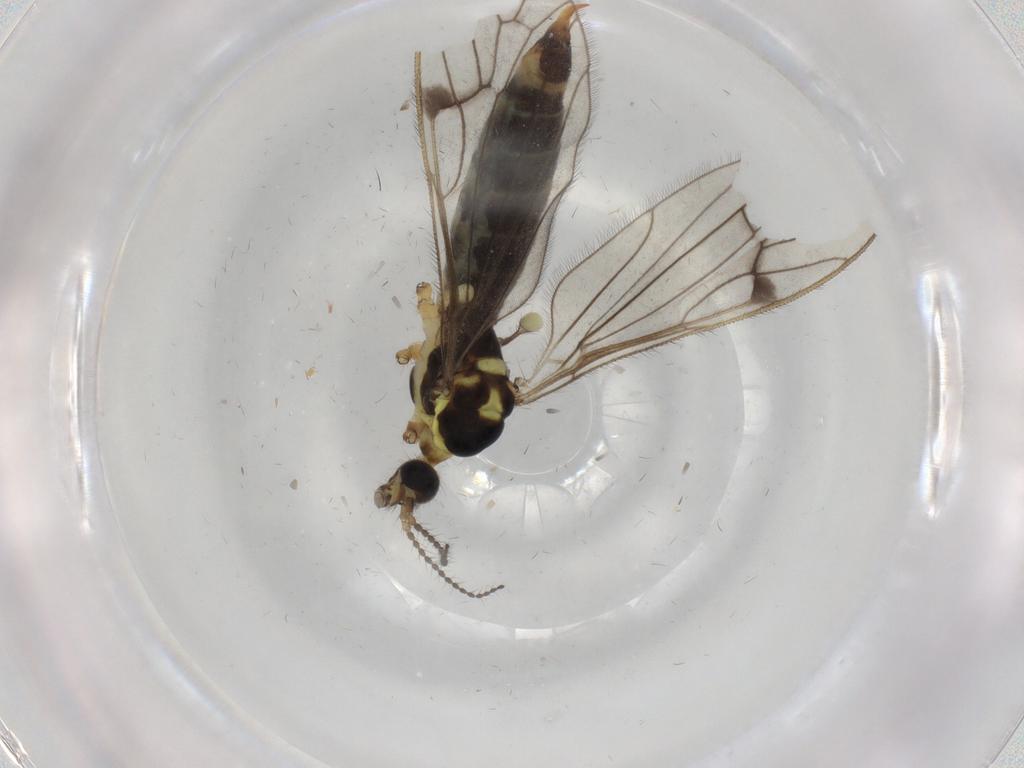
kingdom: Animalia
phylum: Arthropoda
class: Insecta
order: Diptera
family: Limoniidae
